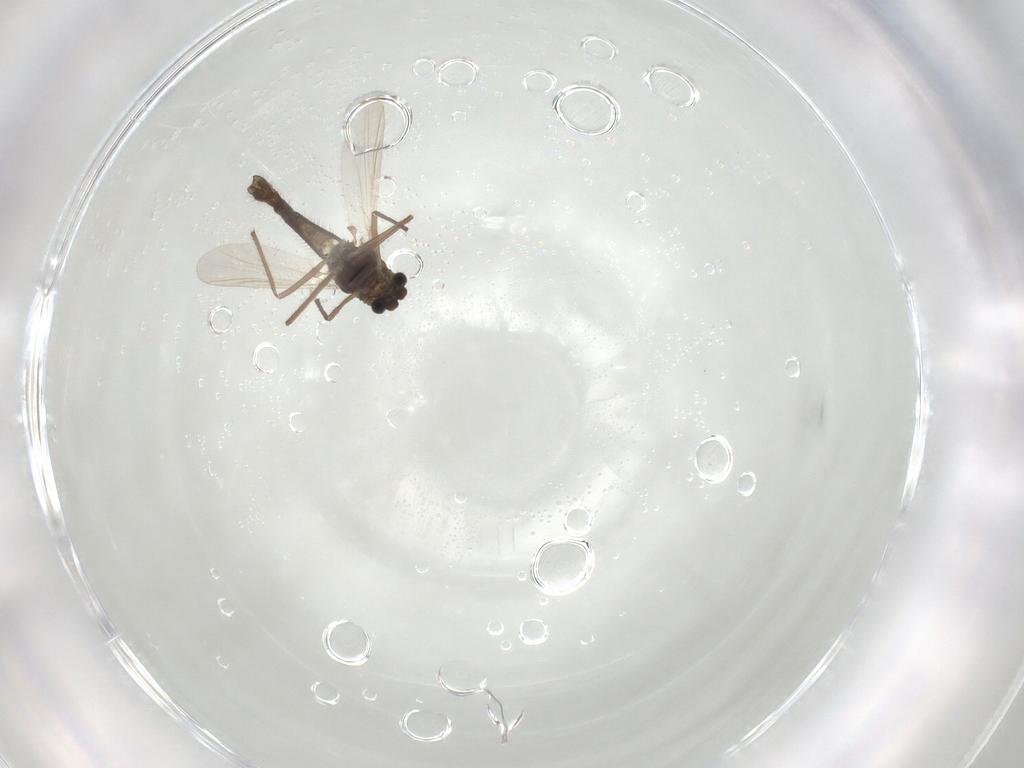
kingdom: Animalia
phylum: Arthropoda
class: Insecta
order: Diptera
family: Chironomidae
